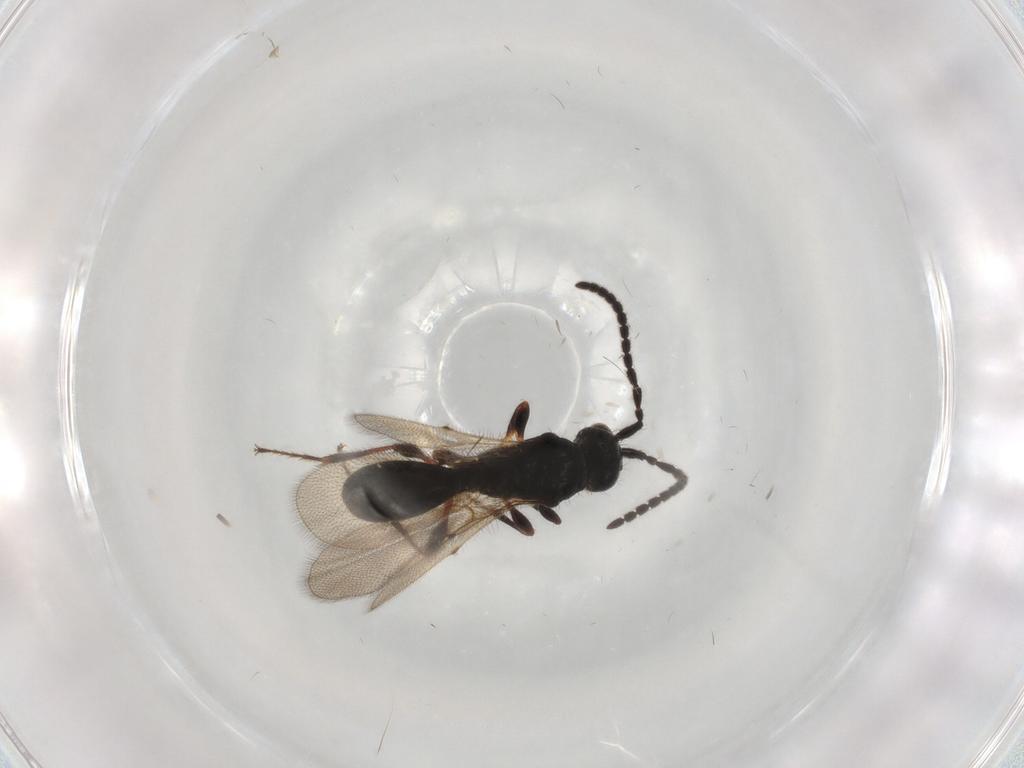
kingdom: Animalia
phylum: Arthropoda
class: Insecta
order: Hymenoptera
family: Diapriidae
